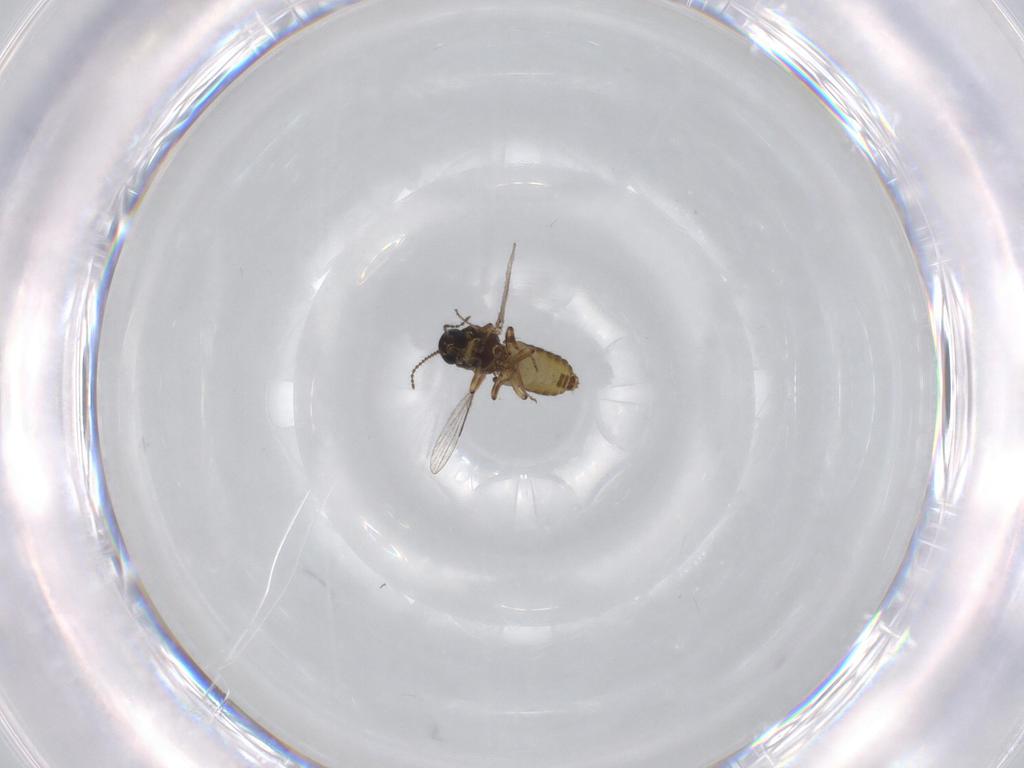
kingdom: Animalia
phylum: Arthropoda
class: Insecta
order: Diptera
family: Ceratopogonidae
